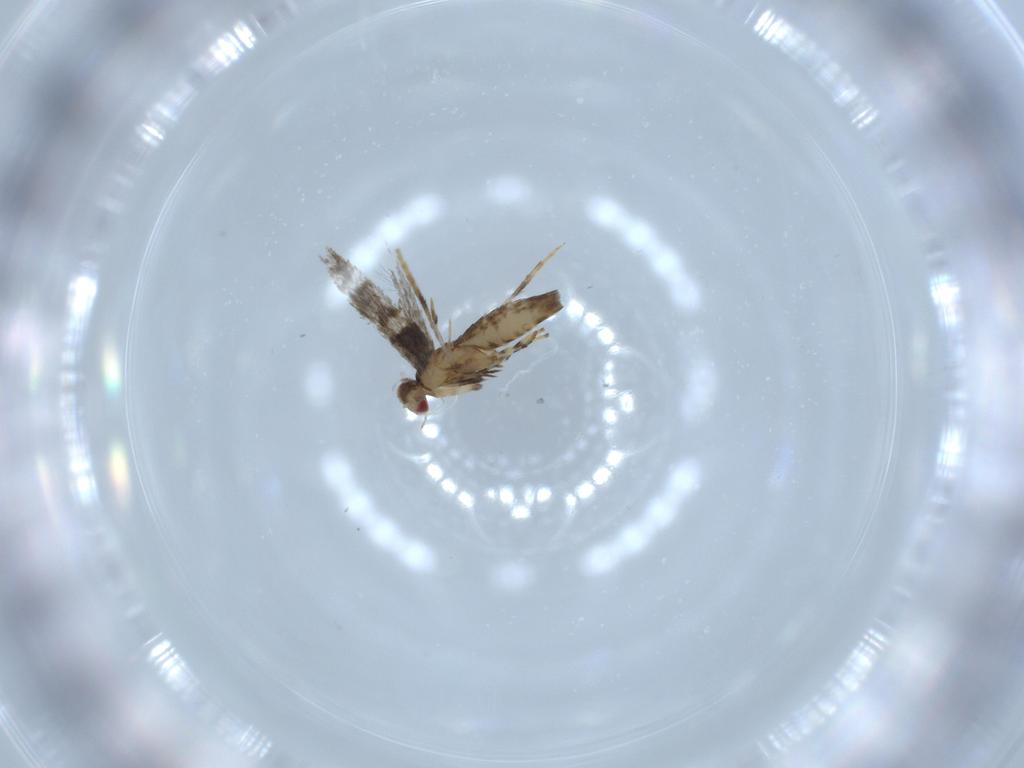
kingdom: Animalia
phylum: Arthropoda
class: Insecta
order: Lepidoptera
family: Gracillariidae
